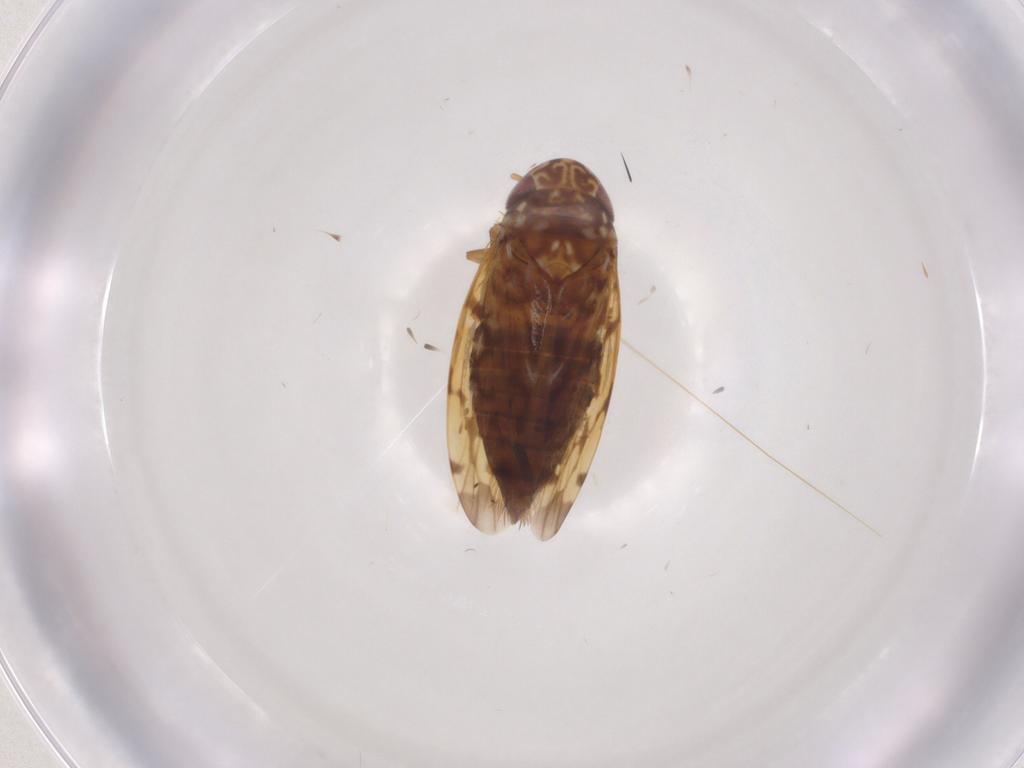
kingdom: Animalia
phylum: Arthropoda
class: Insecta
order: Hemiptera
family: Cicadellidae
